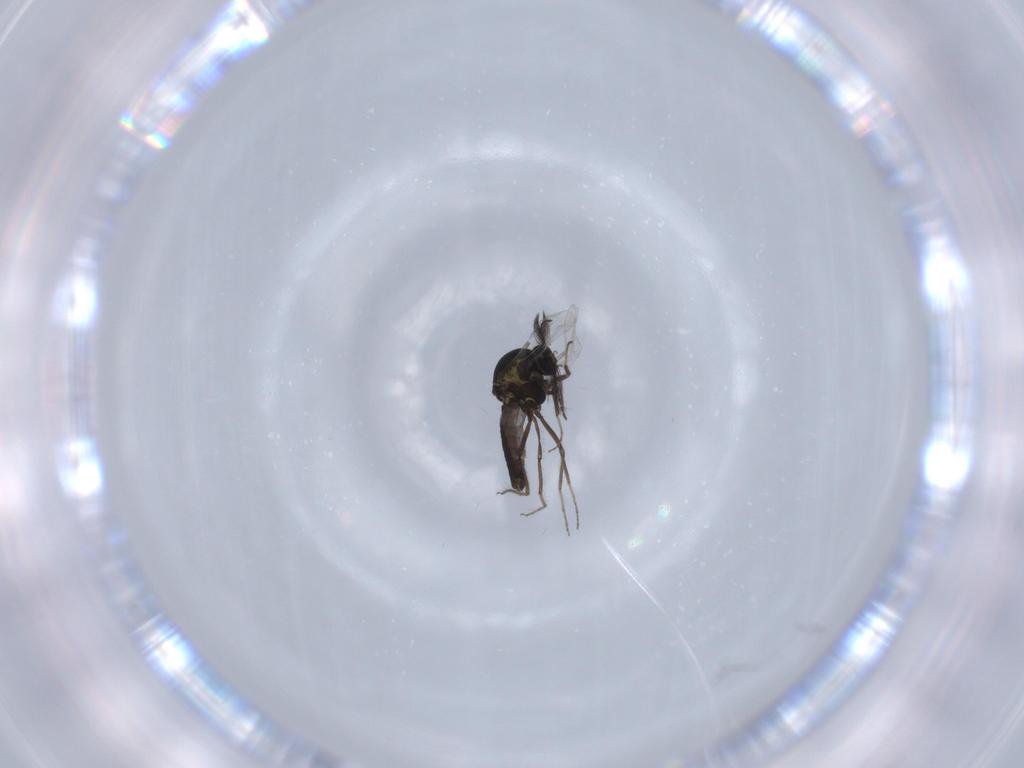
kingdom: Animalia
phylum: Arthropoda
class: Insecta
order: Diptera
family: Ceratopogonidae
